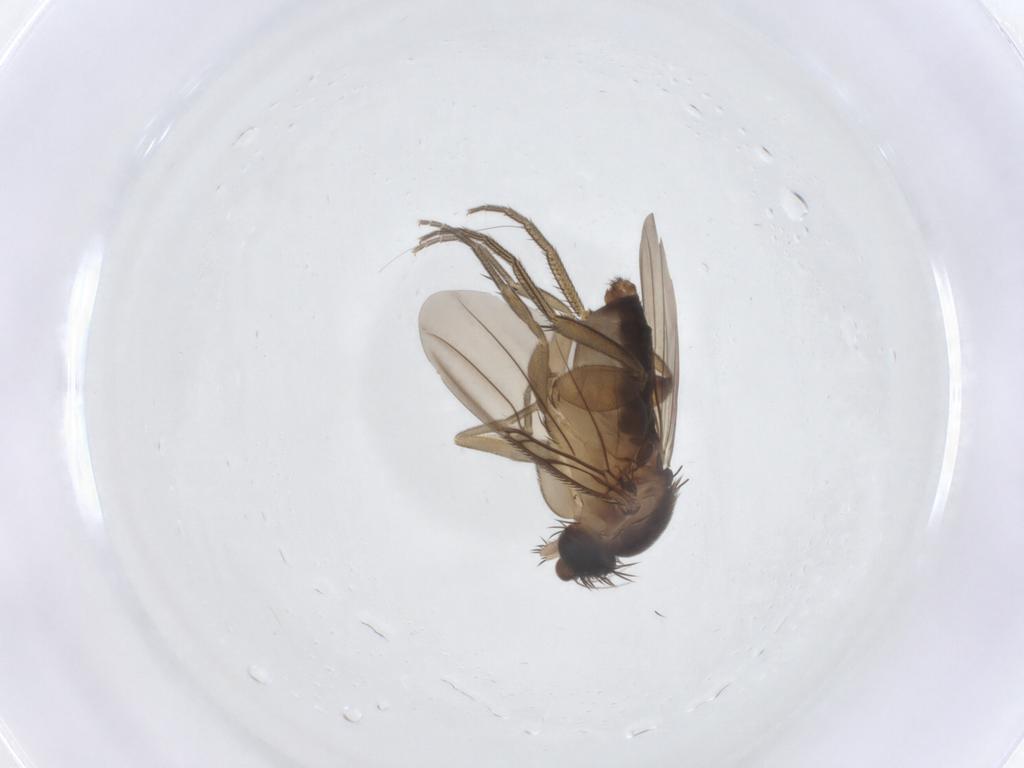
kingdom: Animalia
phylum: Arthropoda
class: Insecta
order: Diptera
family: Phoridae
